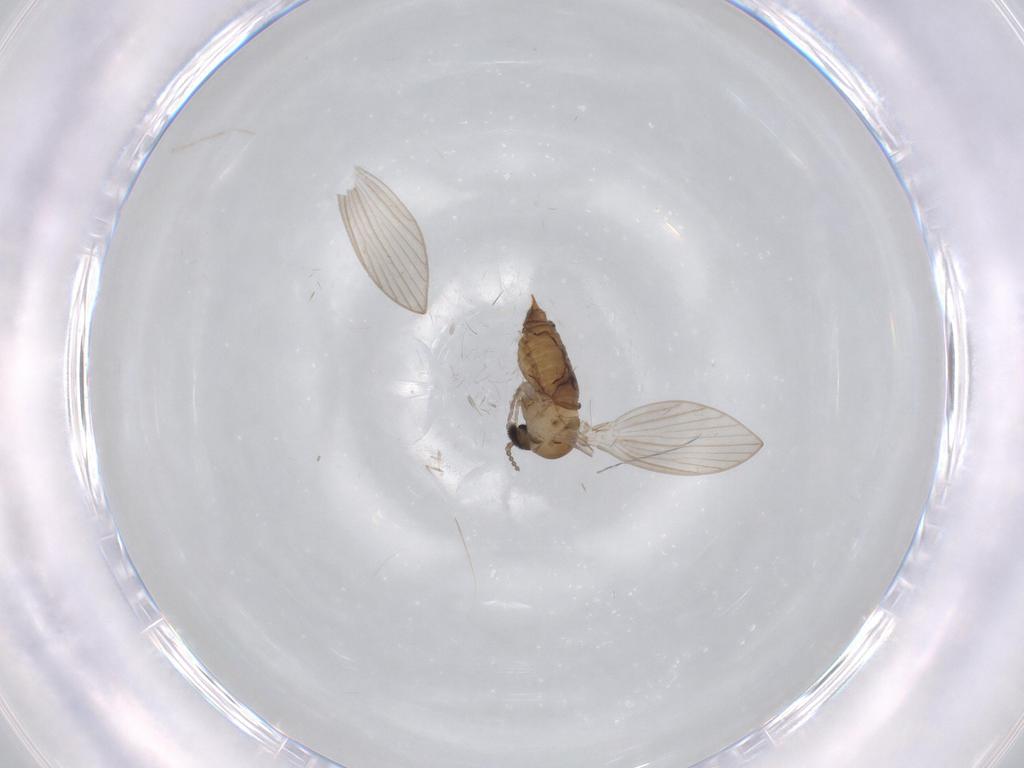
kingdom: Animalia
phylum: Arthropoda
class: Insecta
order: Diptera
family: Psychodidae
